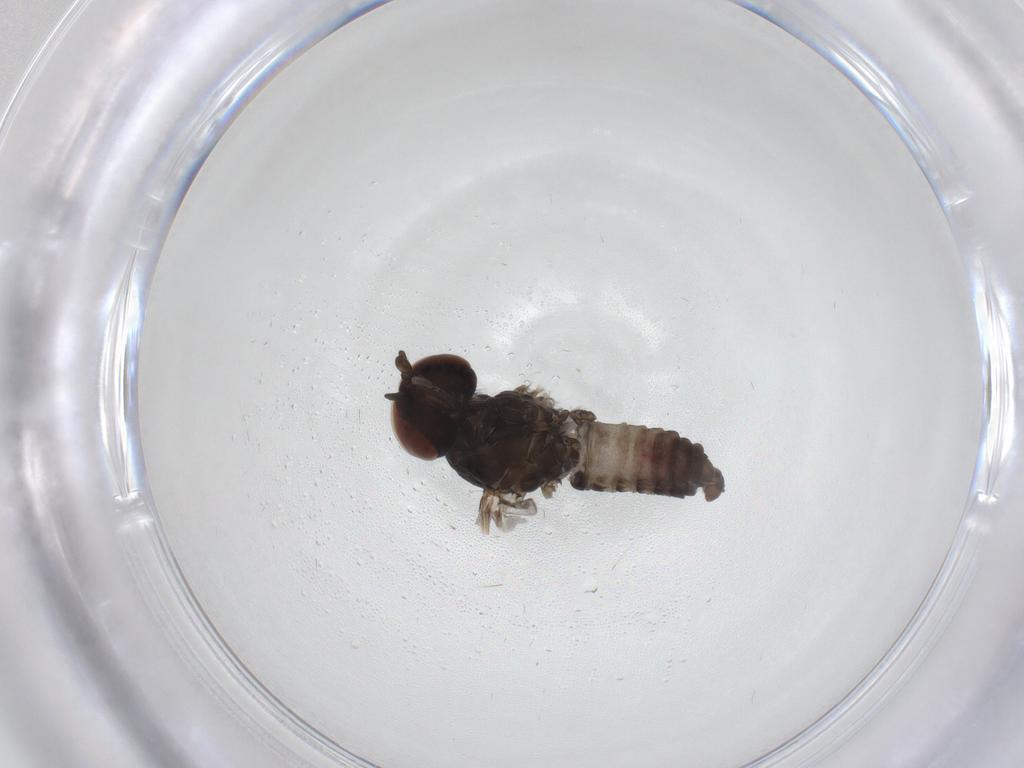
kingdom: Animalia
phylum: Arthropoda
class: Insecta
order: Diptera
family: Austroleptidae
